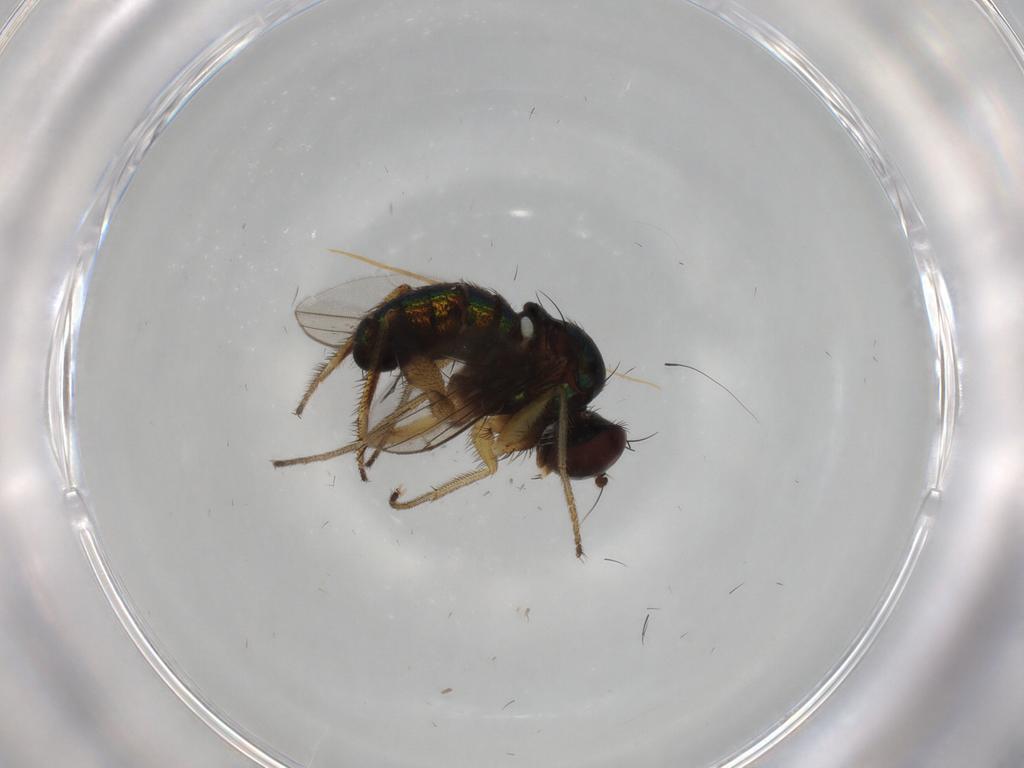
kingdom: Animalia
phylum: Arthropoda
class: Insecta
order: Diptera
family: Dolichopodidae
